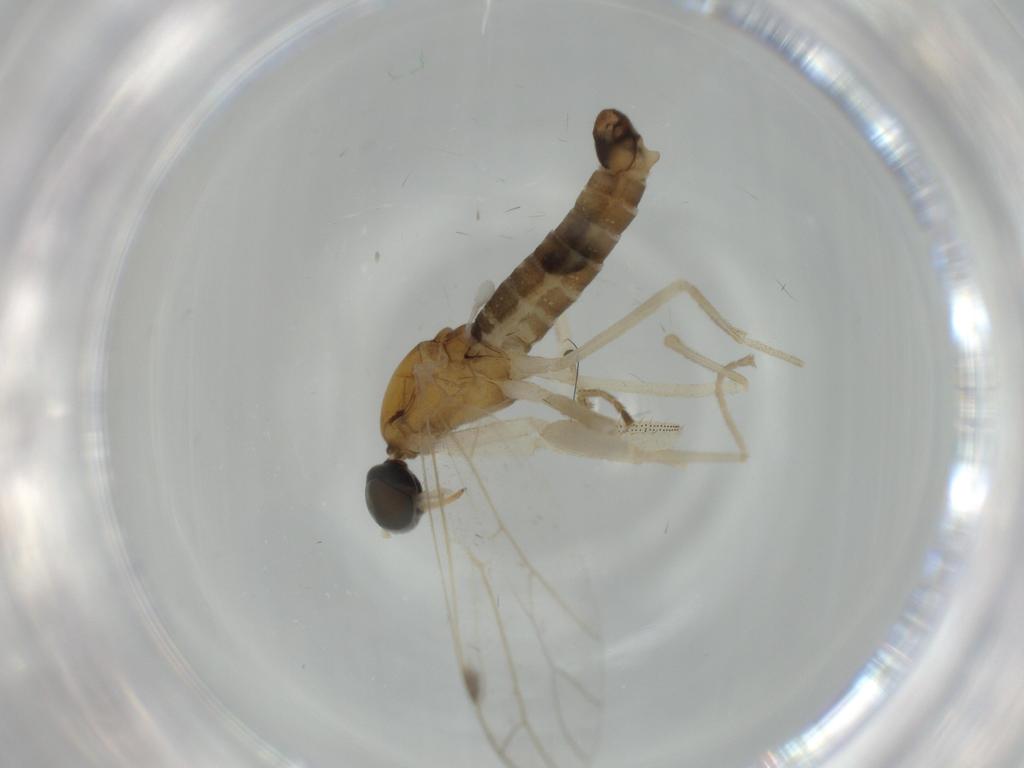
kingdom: Animalia
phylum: Arthropoda
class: Insecta
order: Diptera
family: Empididae
